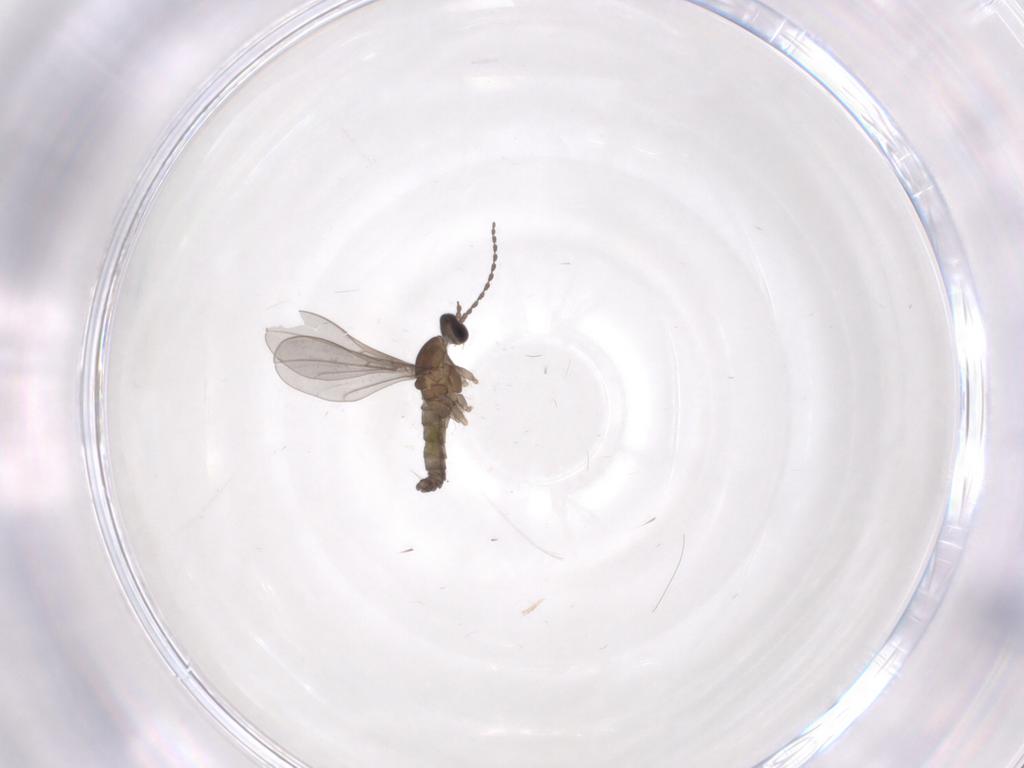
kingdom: Animalia
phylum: Arthropoda
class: Insecta
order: Diptera
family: Cecidomyiidae
